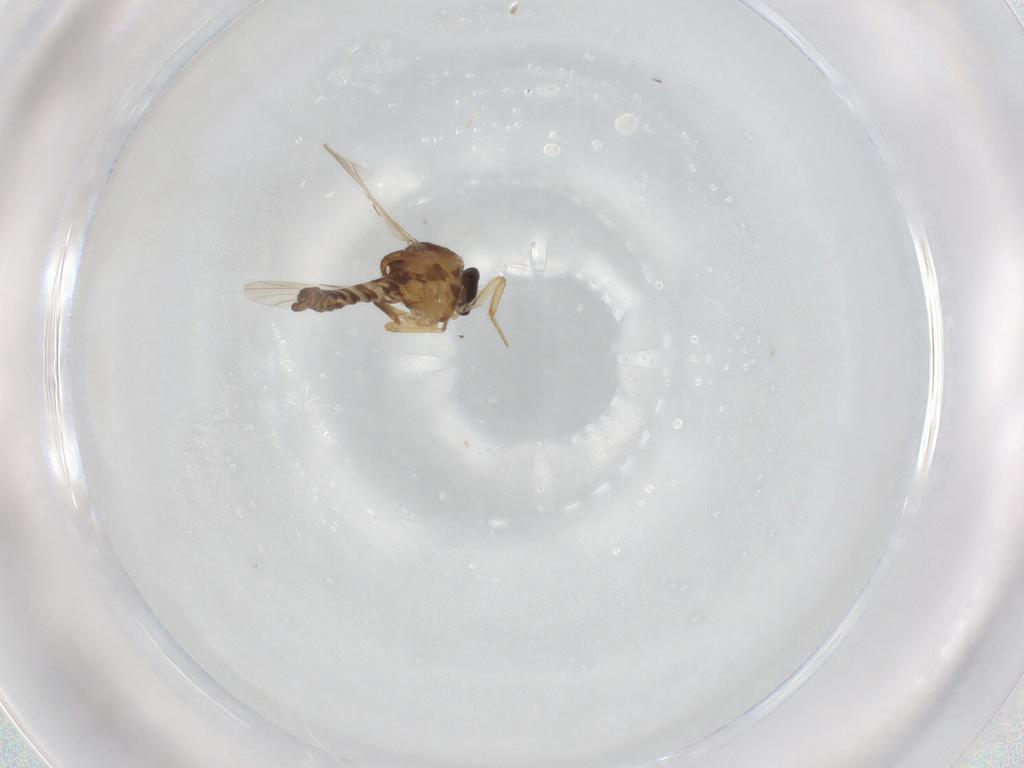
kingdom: Animalia
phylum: Arthropoda
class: Insecta
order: Diptera
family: Ceratopogonidae
